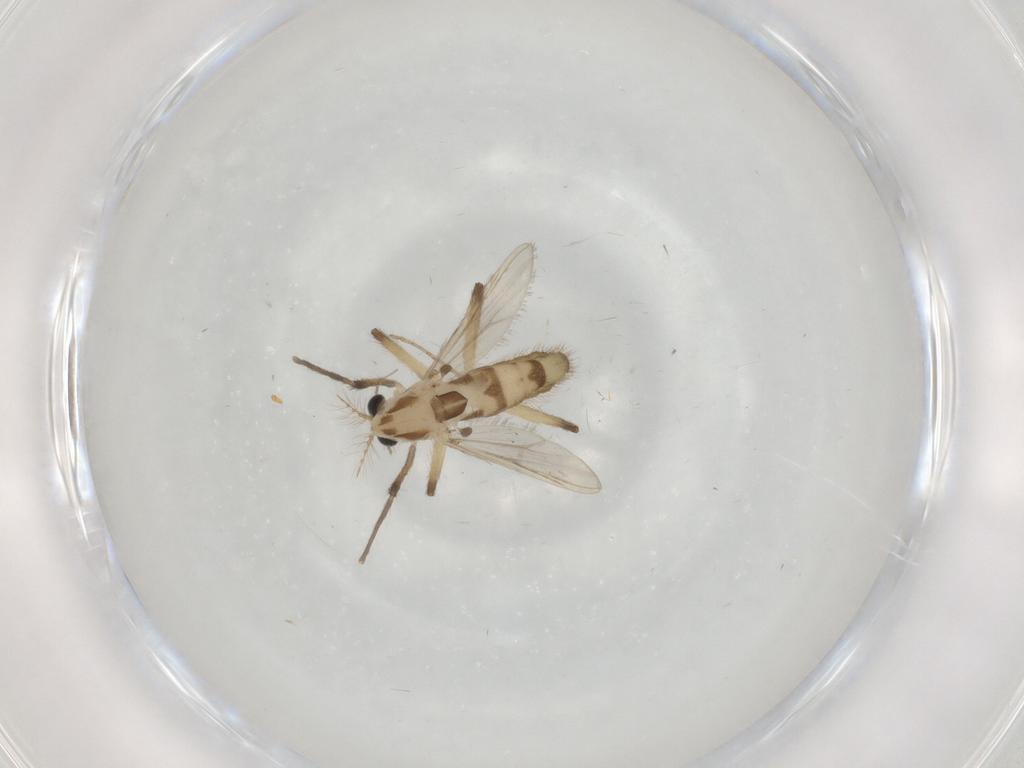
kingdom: Animalia
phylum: Arthropoda
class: Insecta
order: Diptera
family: Chironomidae
